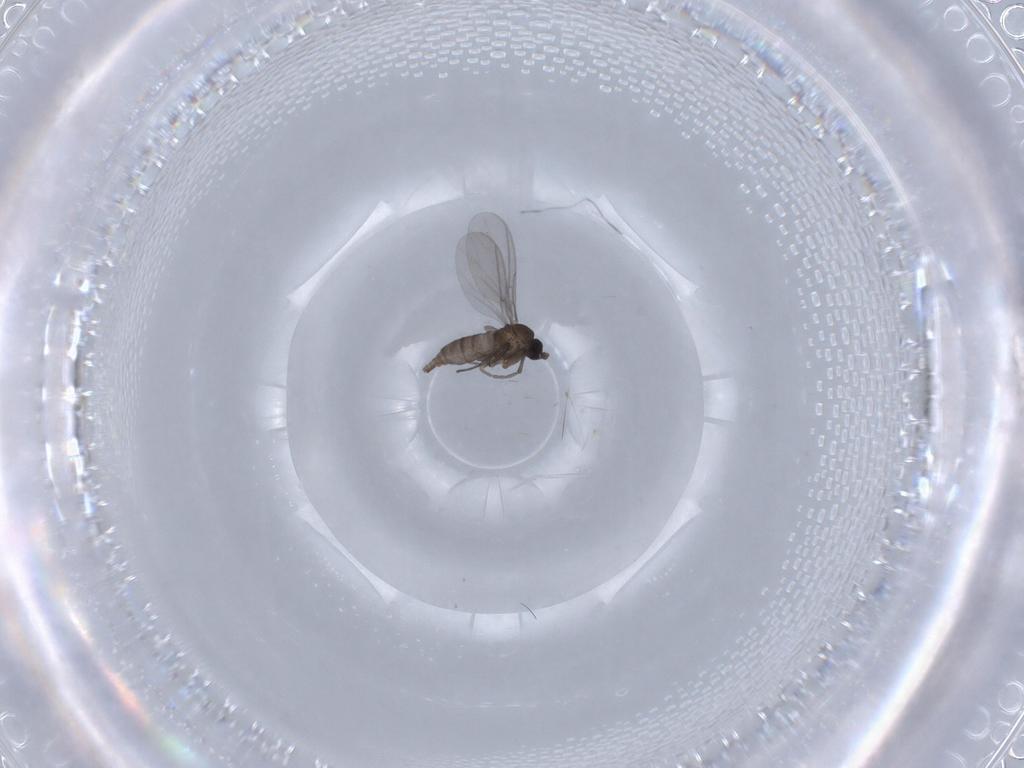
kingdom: Animalia
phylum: Arthropoda
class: Insecta
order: Diptera
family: Sciaridae
